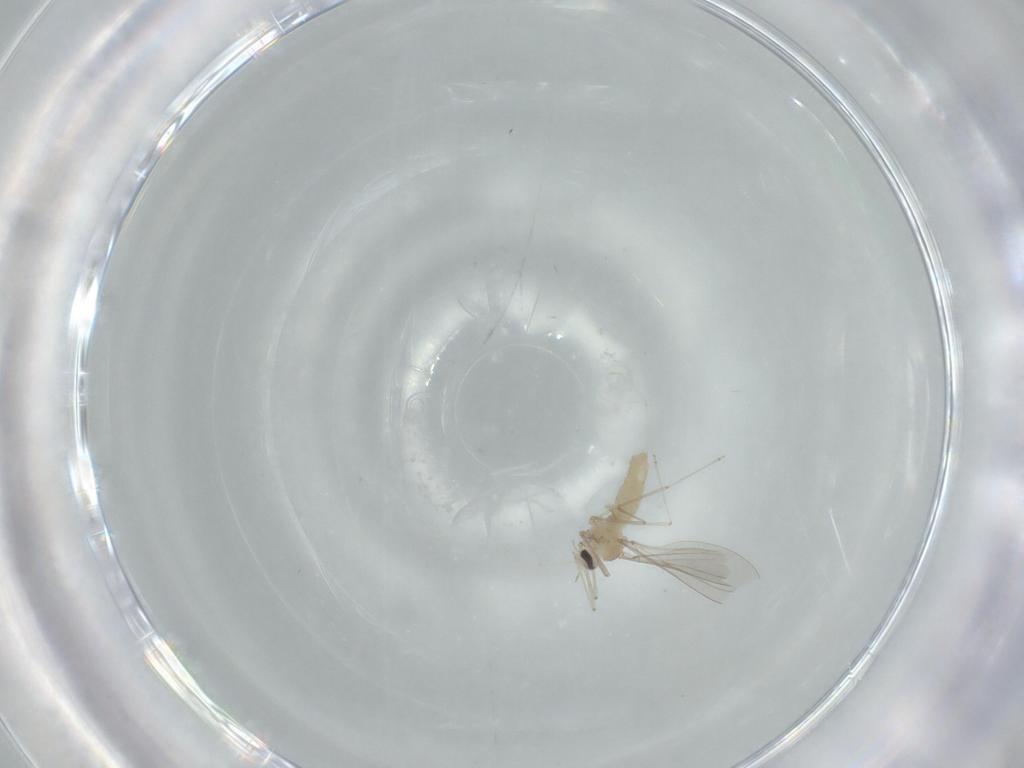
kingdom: Animalia
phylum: Arthropoda
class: Insecta
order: Diptera
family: Cecidomyiidae
